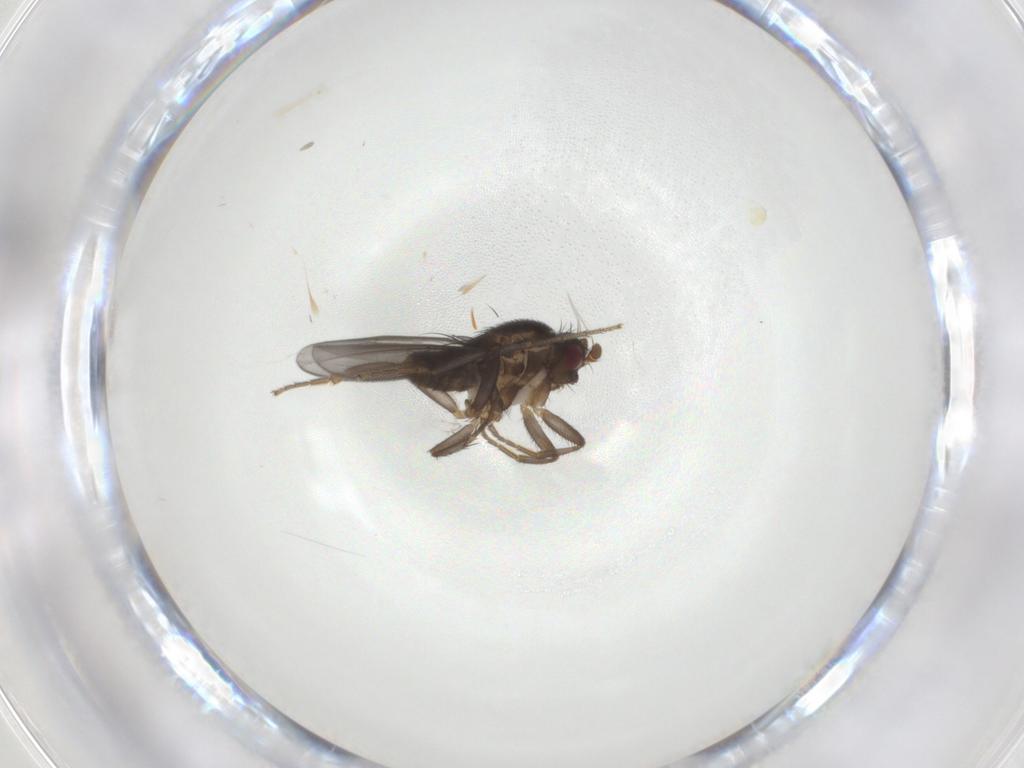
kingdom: Animalia
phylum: Arthropoda
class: Insecta
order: Diptera
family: Sphaeroceridae
